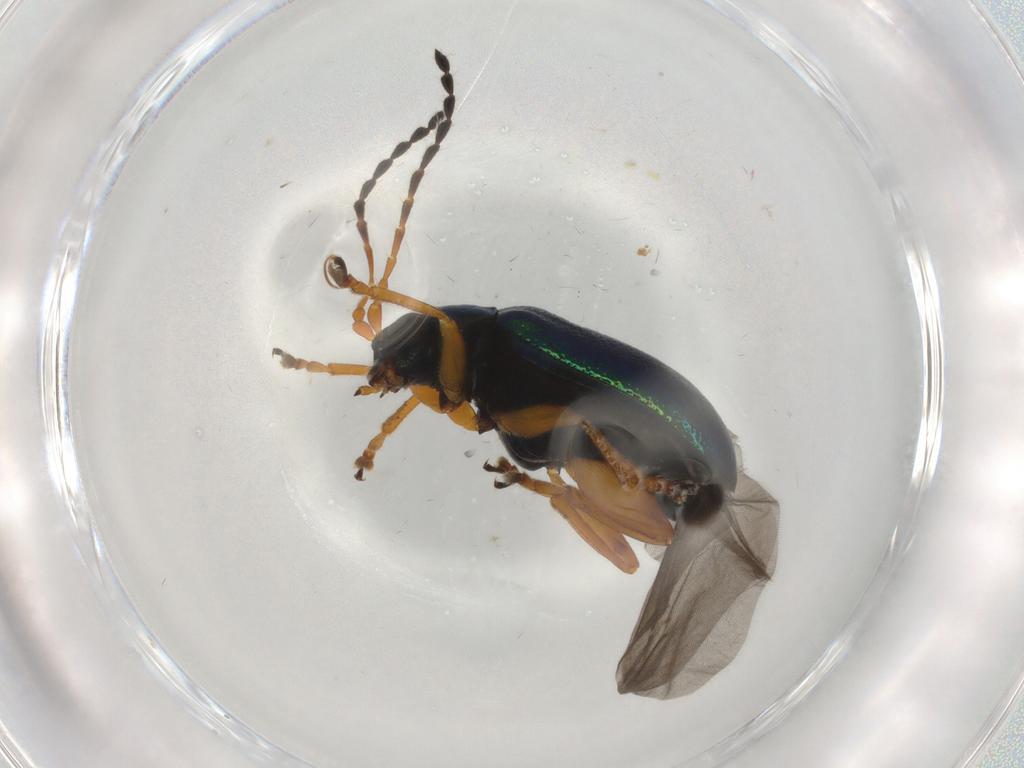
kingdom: Animalia
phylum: Arthropoda
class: Insecta
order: Coleoptera
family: Chrysomelidae
